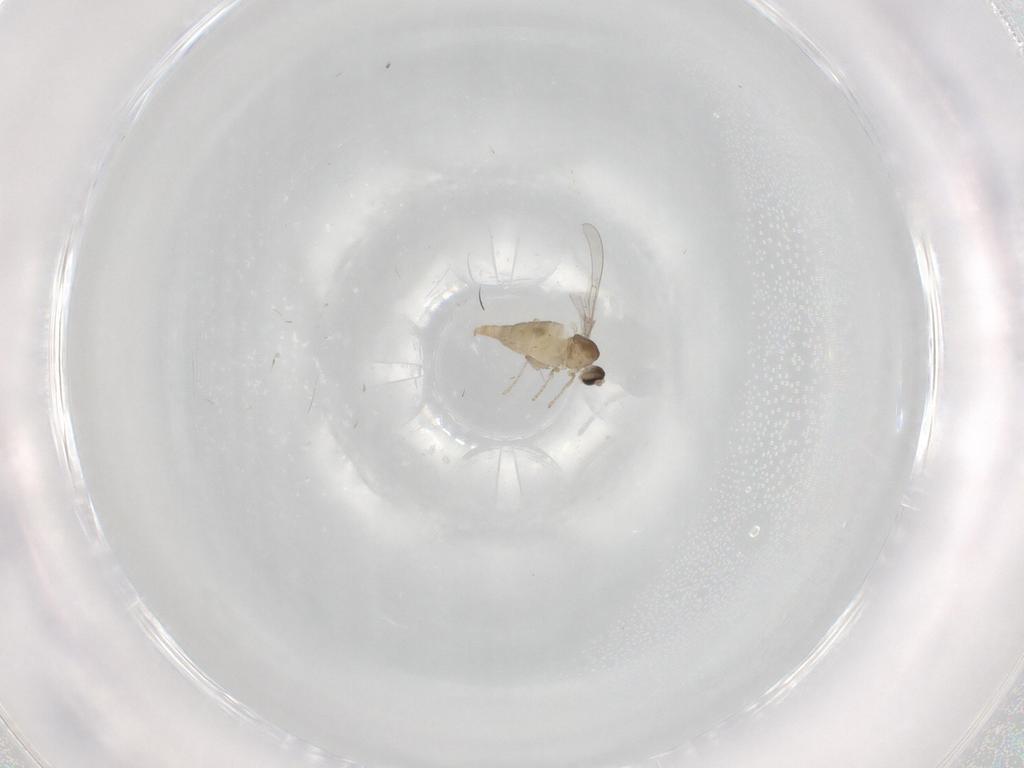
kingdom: Animalia
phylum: Arthropoda
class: Insecta
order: Diptera
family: Cecidomyiidae
